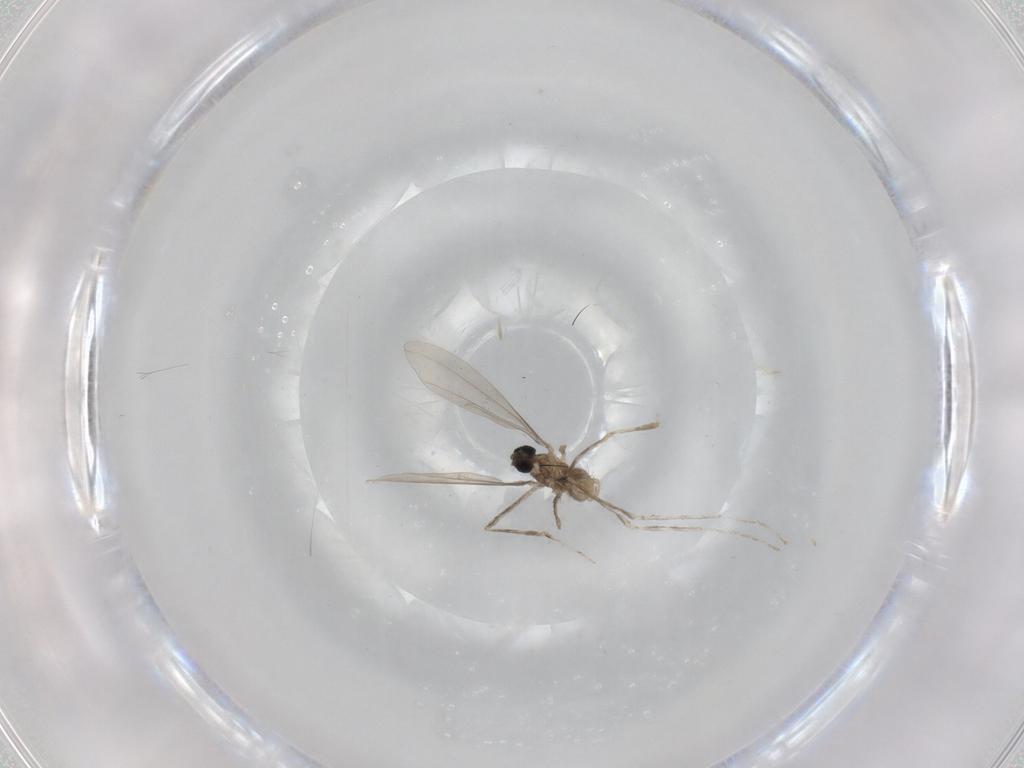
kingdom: Animalia
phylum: Arthropoda
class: Insecta
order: Diptera
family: Cecidomyiidae
